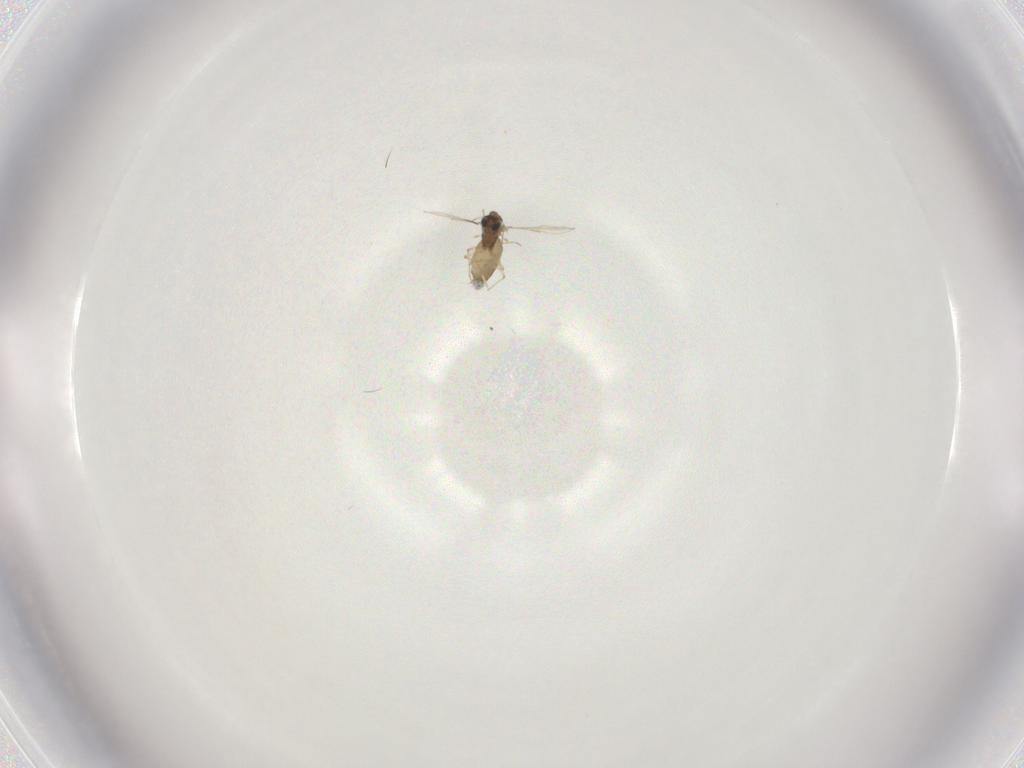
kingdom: Animalia
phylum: Arthropoda
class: Insecta
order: Diptera
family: Chironomidae
